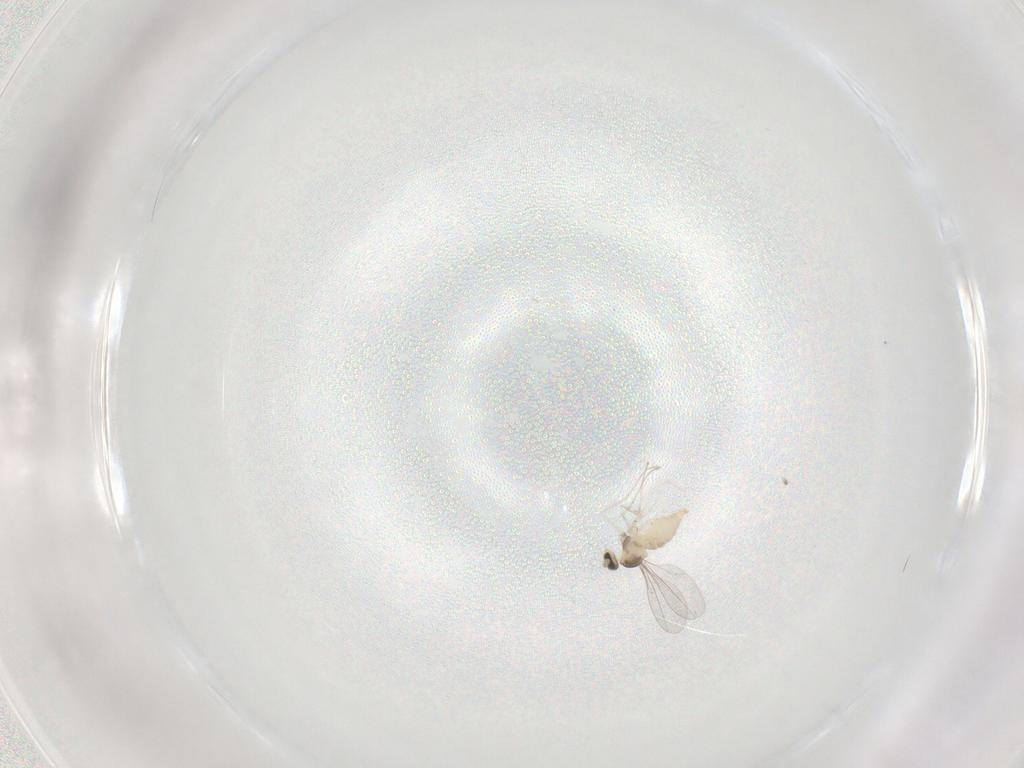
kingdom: Animalia
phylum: Arthropoda
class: Insecta
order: Diptera
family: Cecidomyiidae
